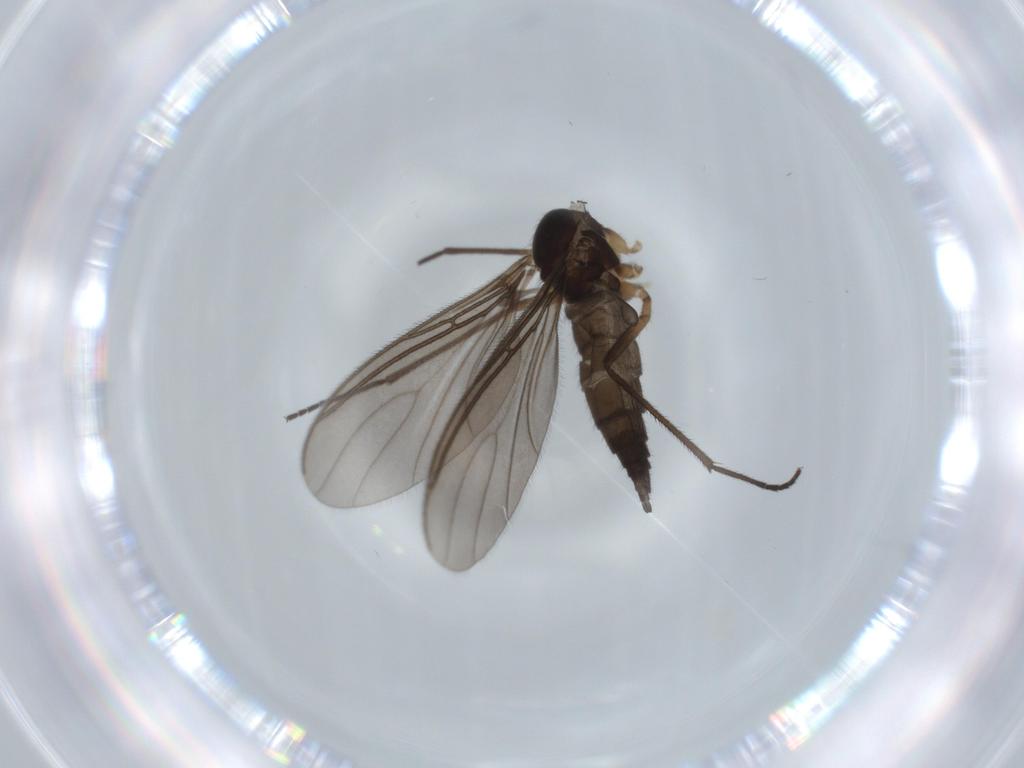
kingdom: Animalia
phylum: Arthropoda
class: Insecta
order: Diptera
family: Sciaridae
